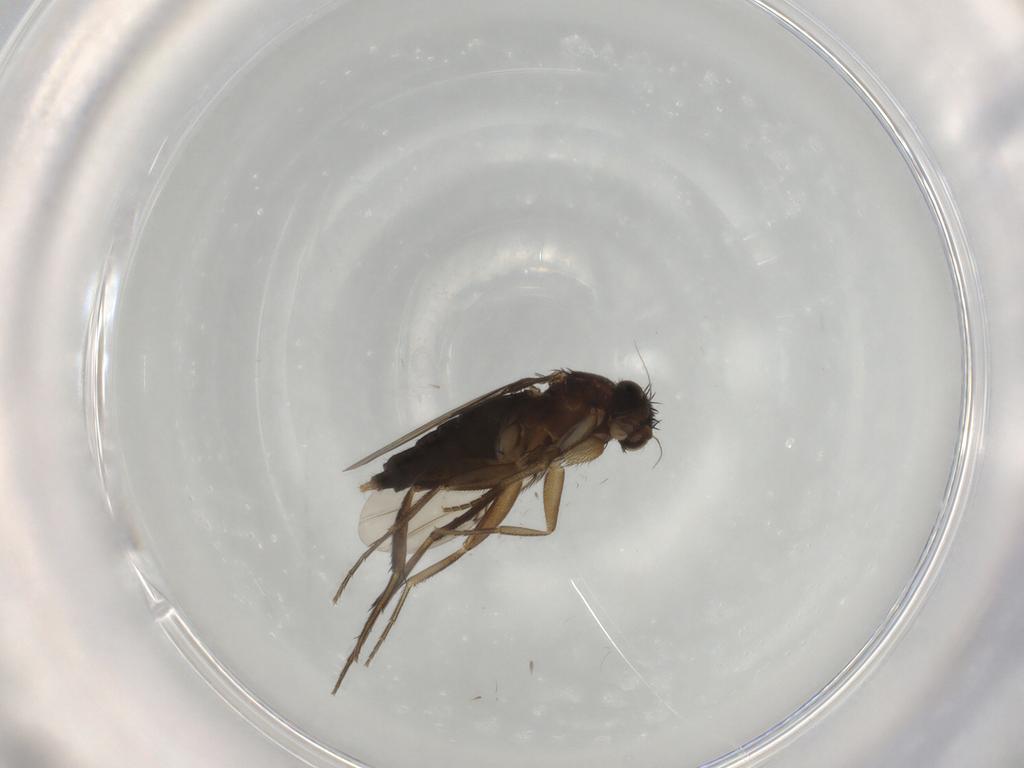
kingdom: Animalia
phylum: Arthropoda
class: Insecta
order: Diptera
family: Phoridae
